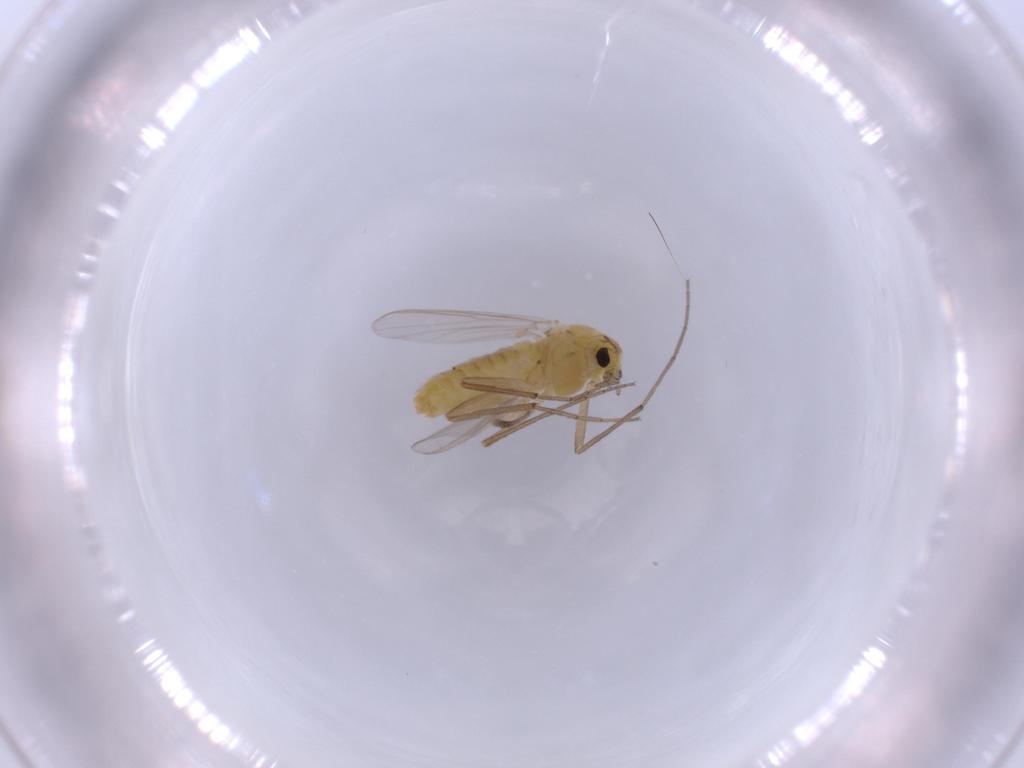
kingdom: Animalia
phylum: Arthropoda
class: Insecta
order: Diptera
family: Chironomidae
